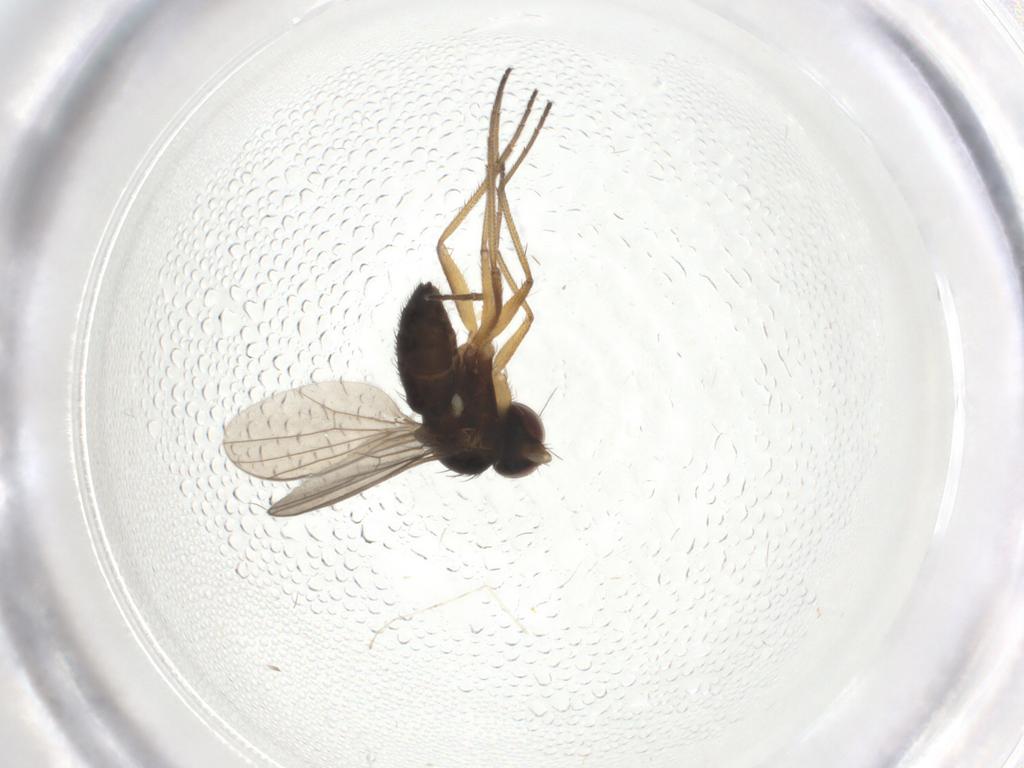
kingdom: Animalia
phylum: Arthropoda
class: Insecta
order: Diptera
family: Dolichopodidae
